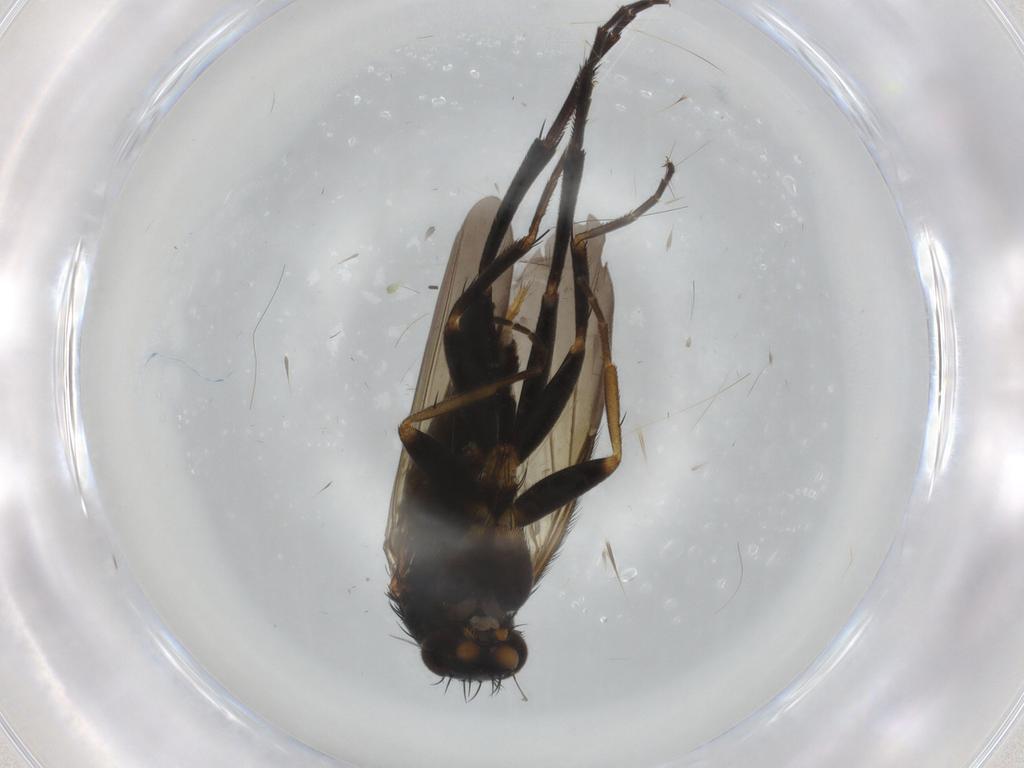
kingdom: Animalia
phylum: Arthropoda
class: Insecta
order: Diptera
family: Phoridae
